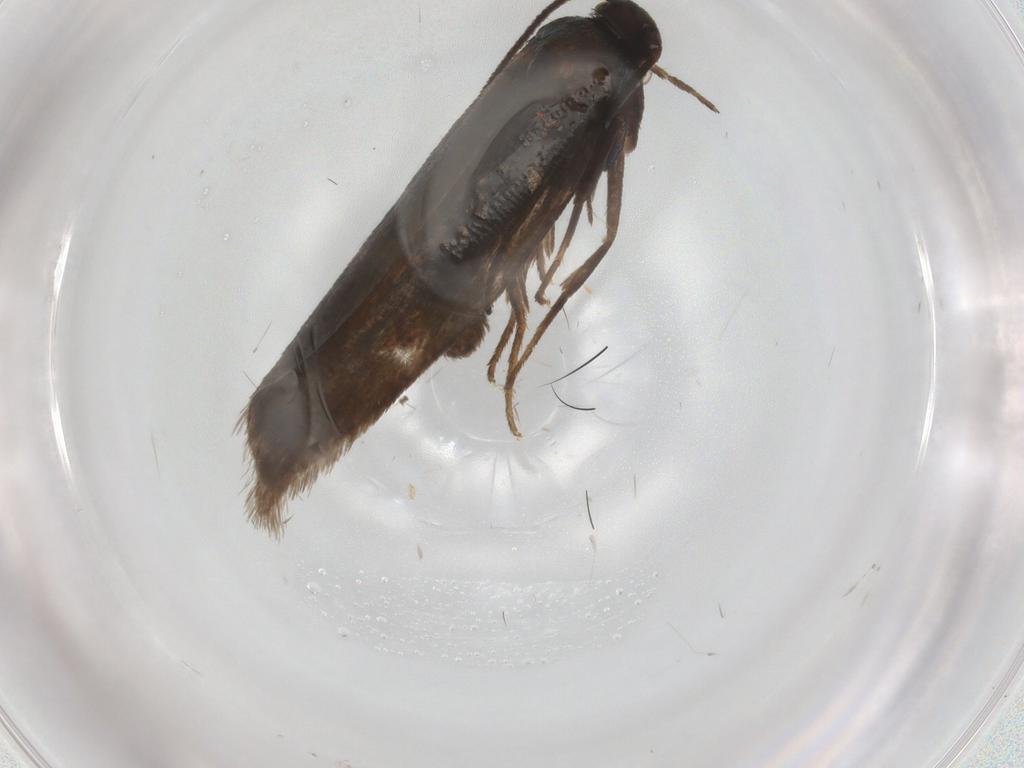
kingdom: Animalia
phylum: Arthropoda
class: Insecta
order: Lepidoptera
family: Argyresthiidae
